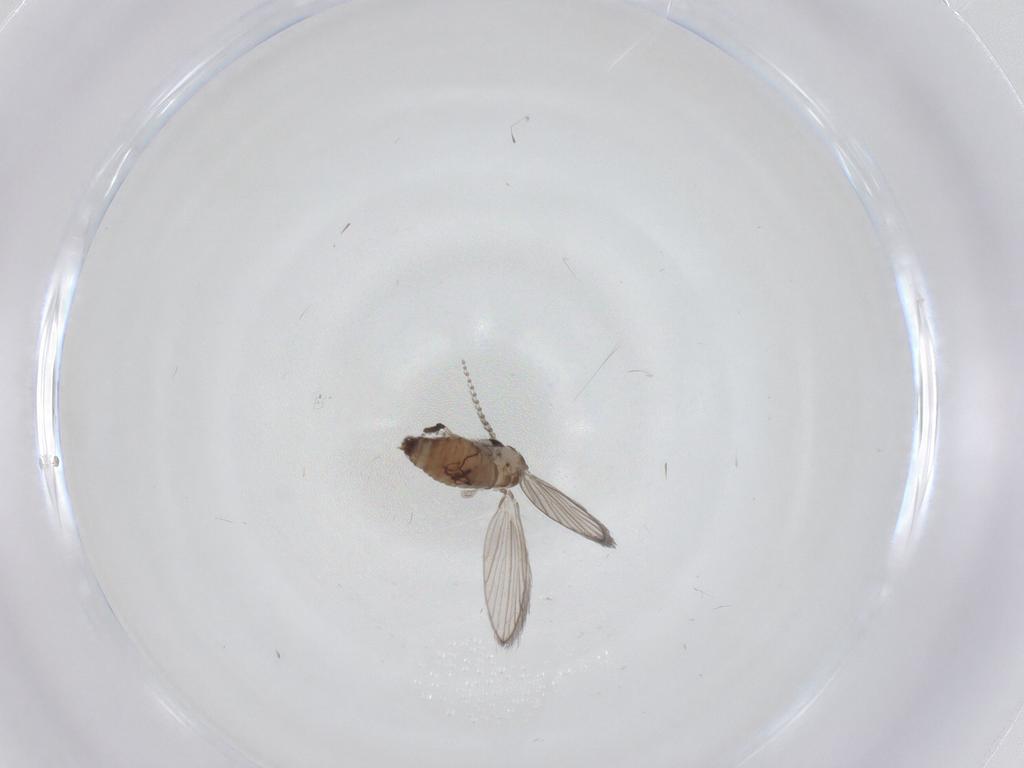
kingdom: Animalia
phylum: Arthropoda
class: Insecta
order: Diptera
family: Psychodidae
